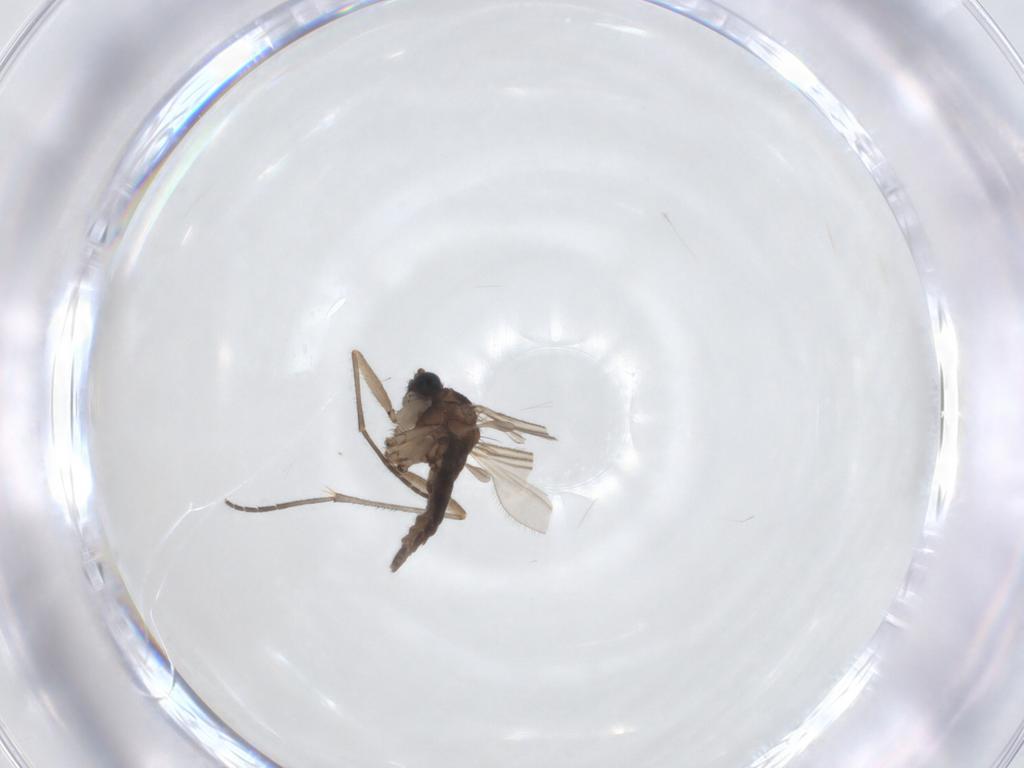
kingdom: Animalia
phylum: Arthropoda
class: Insecta
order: Diptera
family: Sciaridae
